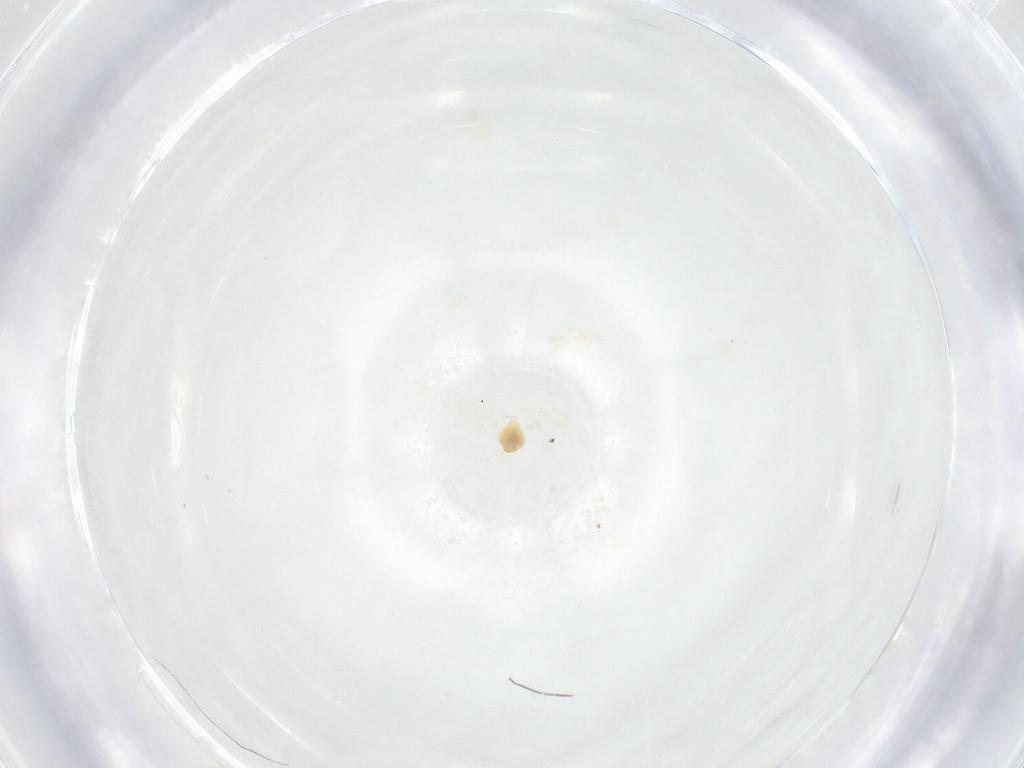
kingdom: Animalia
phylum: Arthropoda
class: Insecta
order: Diptera
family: Fergusoninidae
